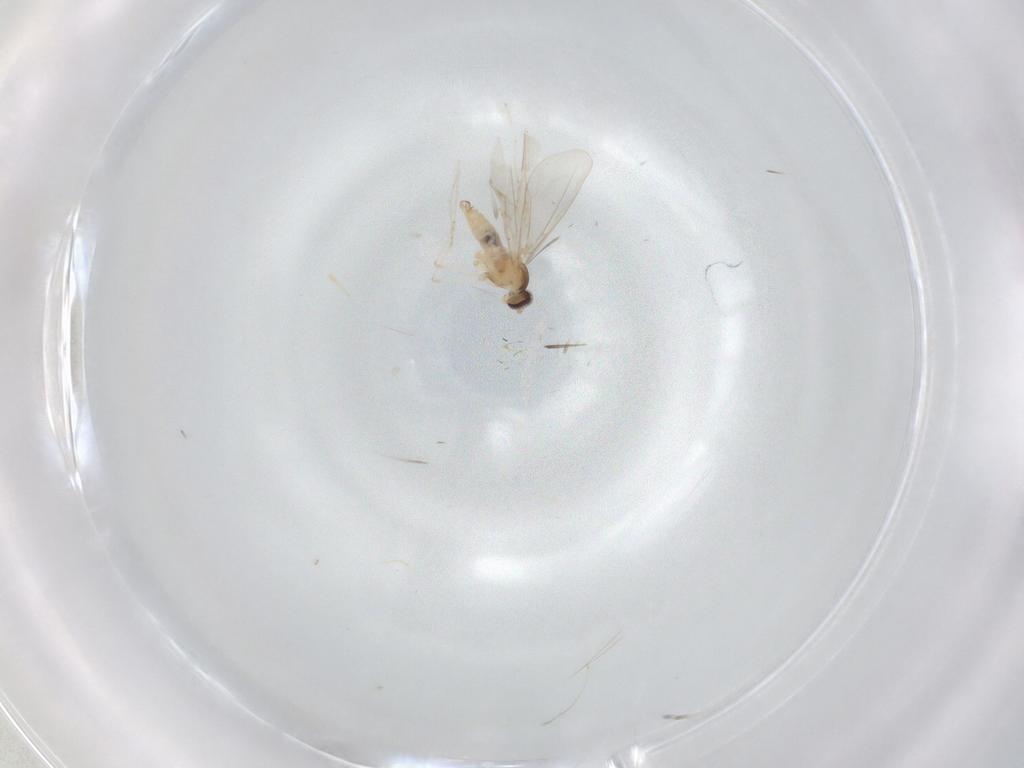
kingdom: Animalia
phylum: Arthropoda
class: Insecta
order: Diptera
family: Cecidomyiidae
